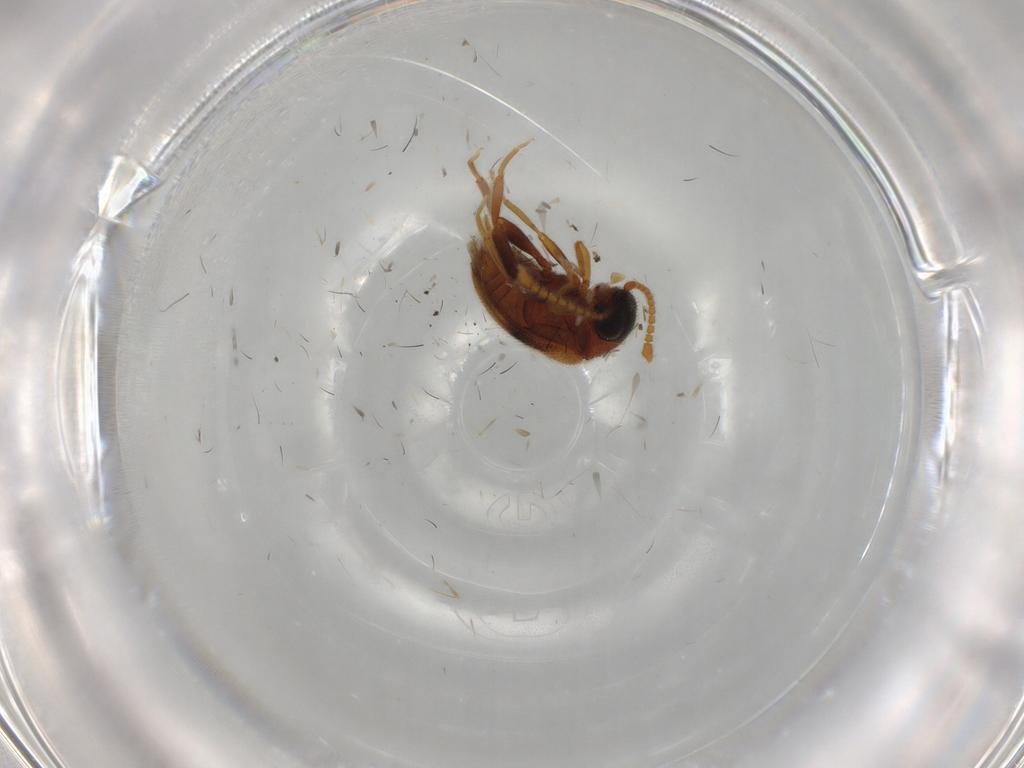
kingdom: Animalia
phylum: Arthropoda
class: Insecta
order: Coleoptera
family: Aderidae
